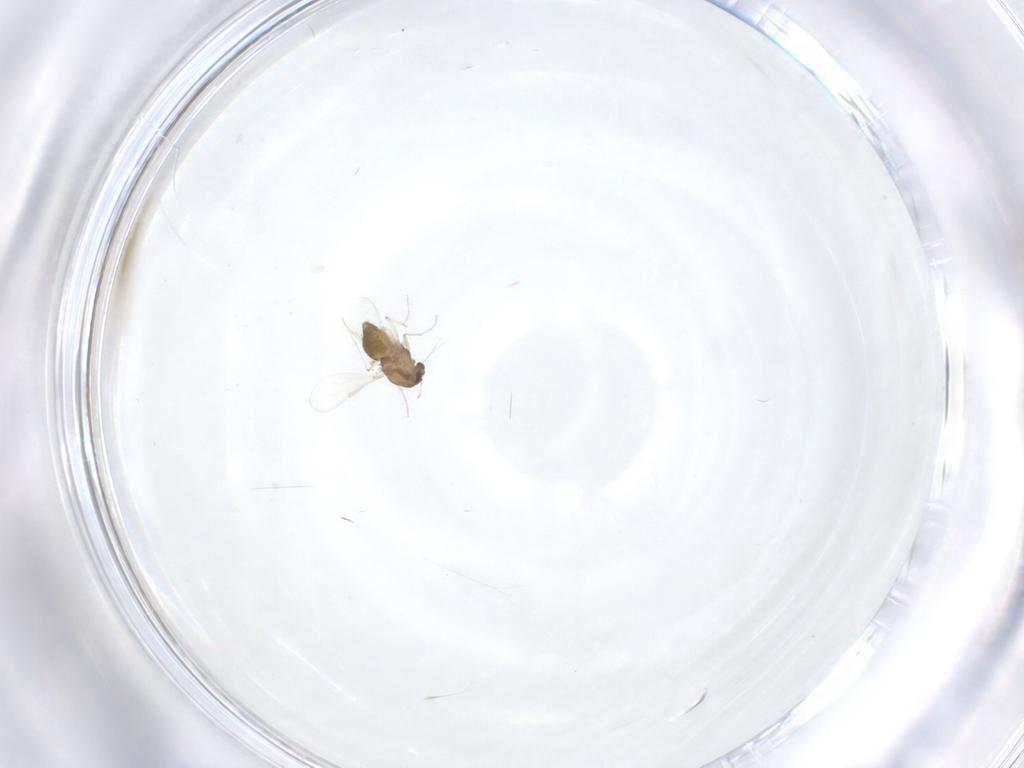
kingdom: Animalia
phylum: Arthropoda
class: Insecta
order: Diptera
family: Chironomidae
